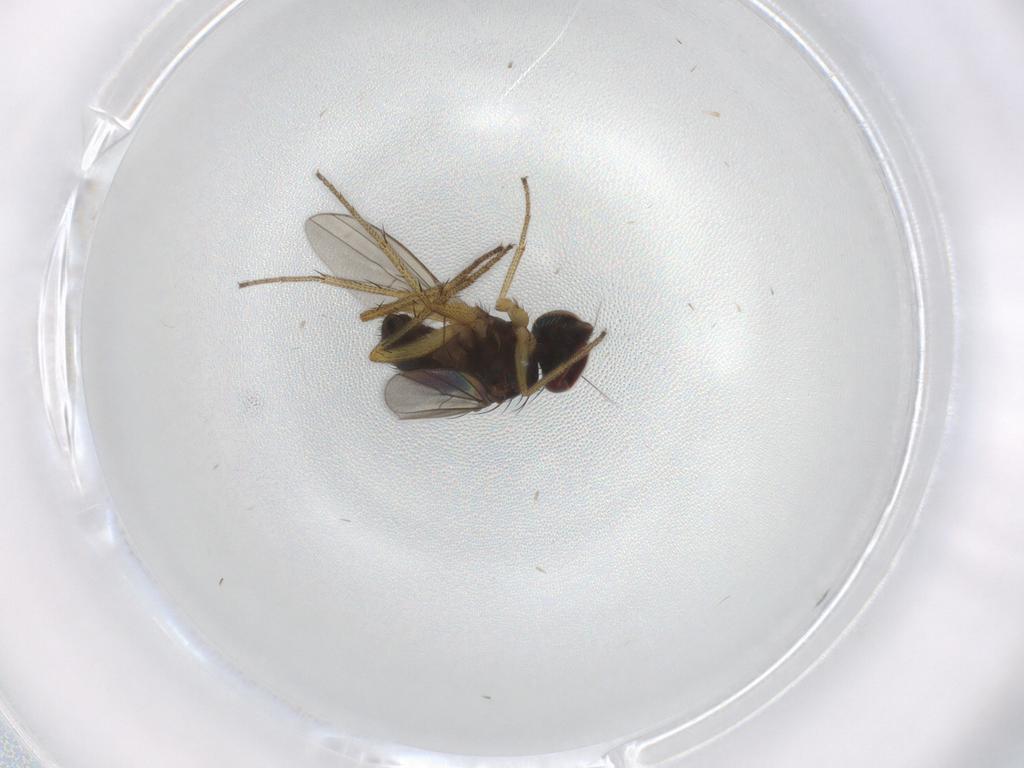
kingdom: Animalia
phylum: Arthropoda
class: Insecta
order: Diptera
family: Dolichopodidae
